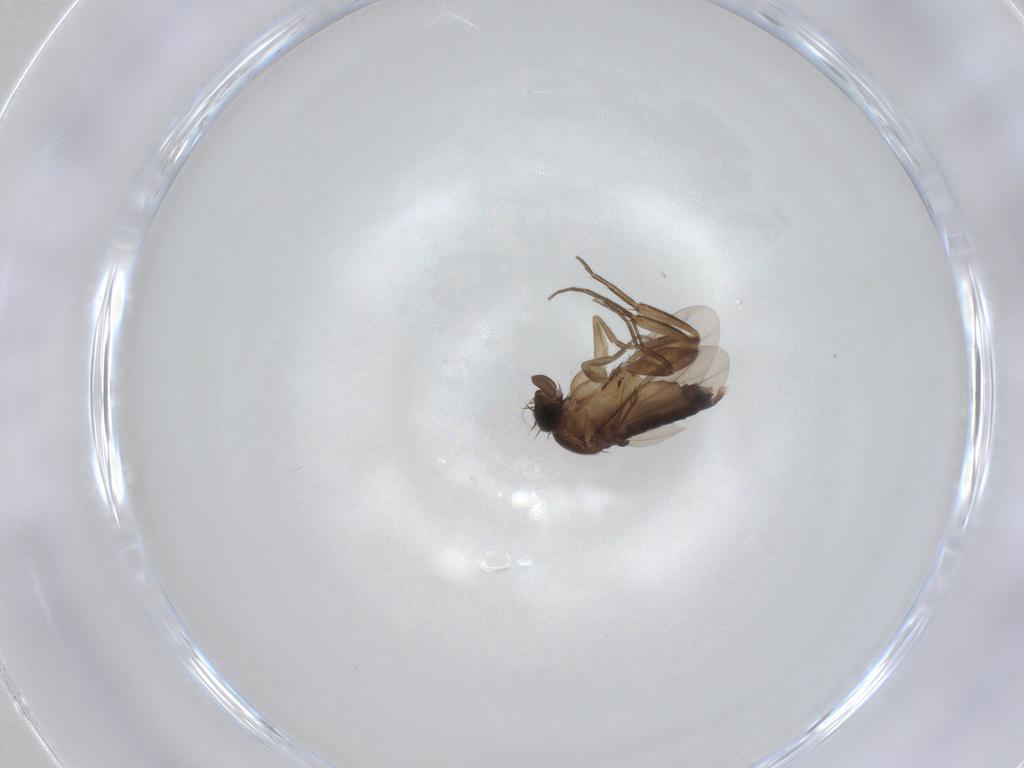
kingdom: Animalia
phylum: Arthropoda
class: Insecta
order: Diptera
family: Phoridae
